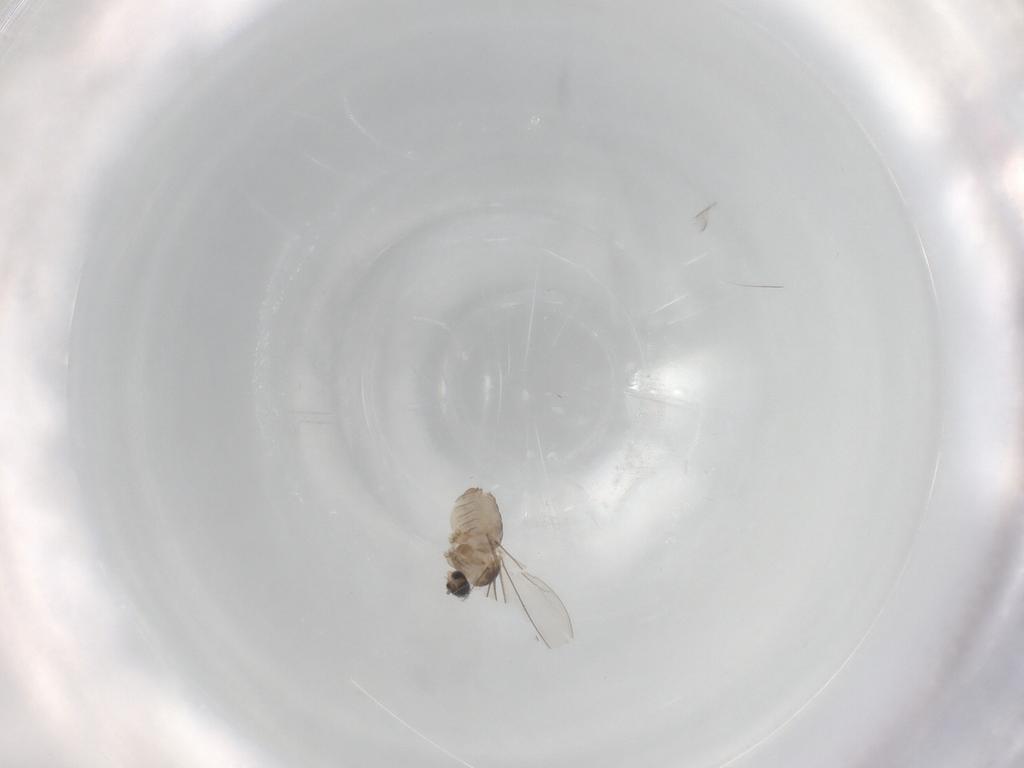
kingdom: Animalia
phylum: Arthropoda
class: Insecta
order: Diptera
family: Cecidomyiidae
